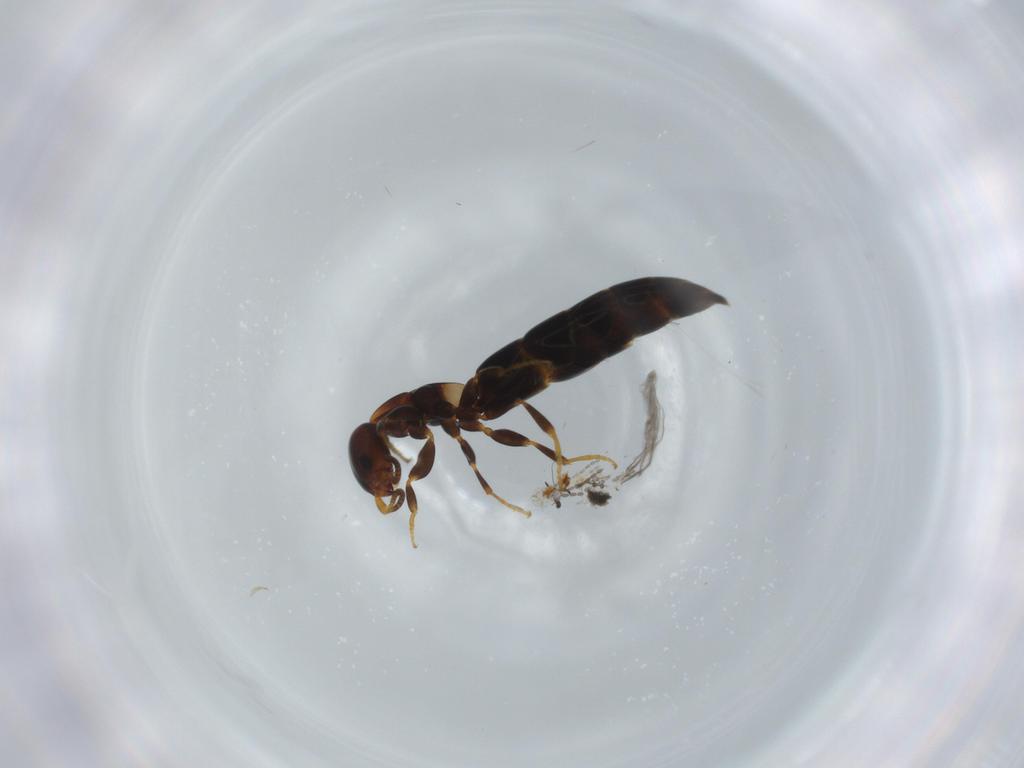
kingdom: Animalia
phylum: Arthropoda
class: Insecta
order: Hymenoptera
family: Bethylidae
